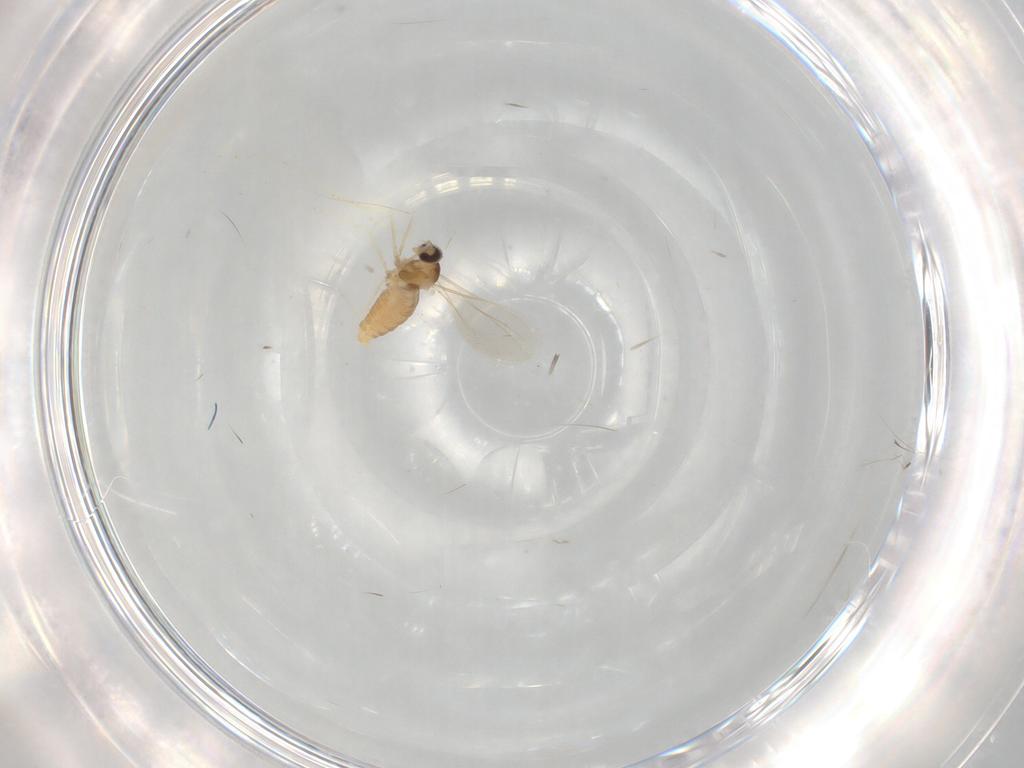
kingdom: Animalia
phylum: Arthropoda
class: Insecta
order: Diptera
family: Cecidomyiidae
